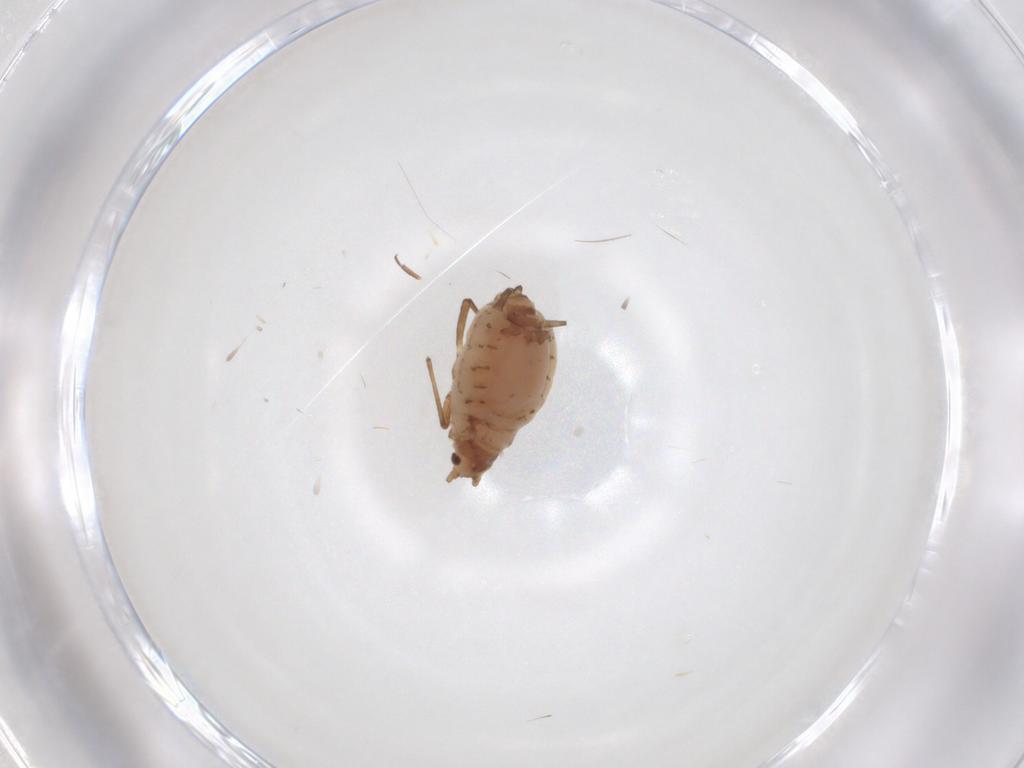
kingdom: Animalia
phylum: Arthropoda
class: Insecta
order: Hemiptera
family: Aphididae
